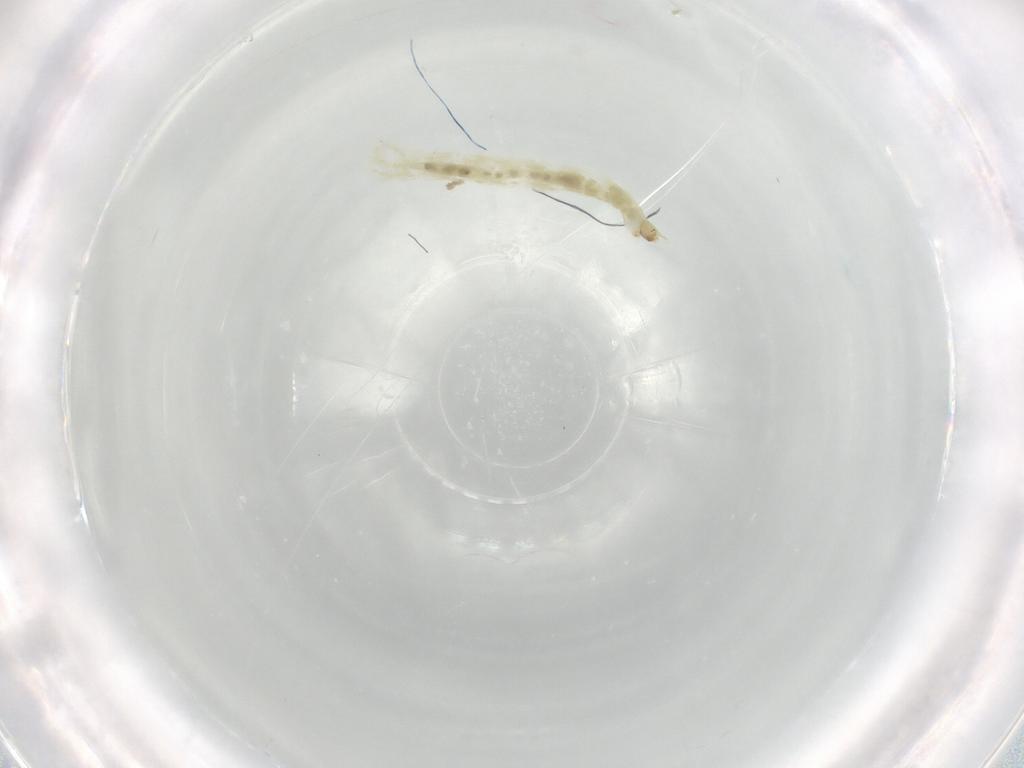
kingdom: Animalia
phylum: Arthropoda
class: Insecta
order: Diptera
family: Chironomidae
